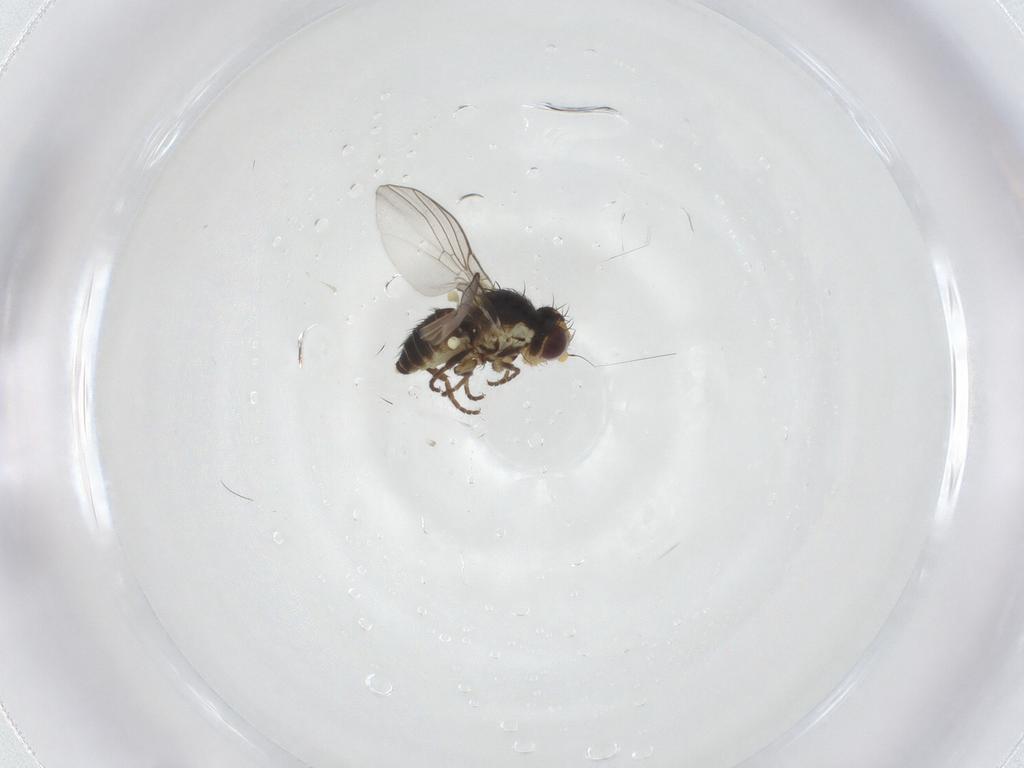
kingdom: Animalia
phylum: Arthropoda
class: Insecta
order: Diptera
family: Agromyzidae
